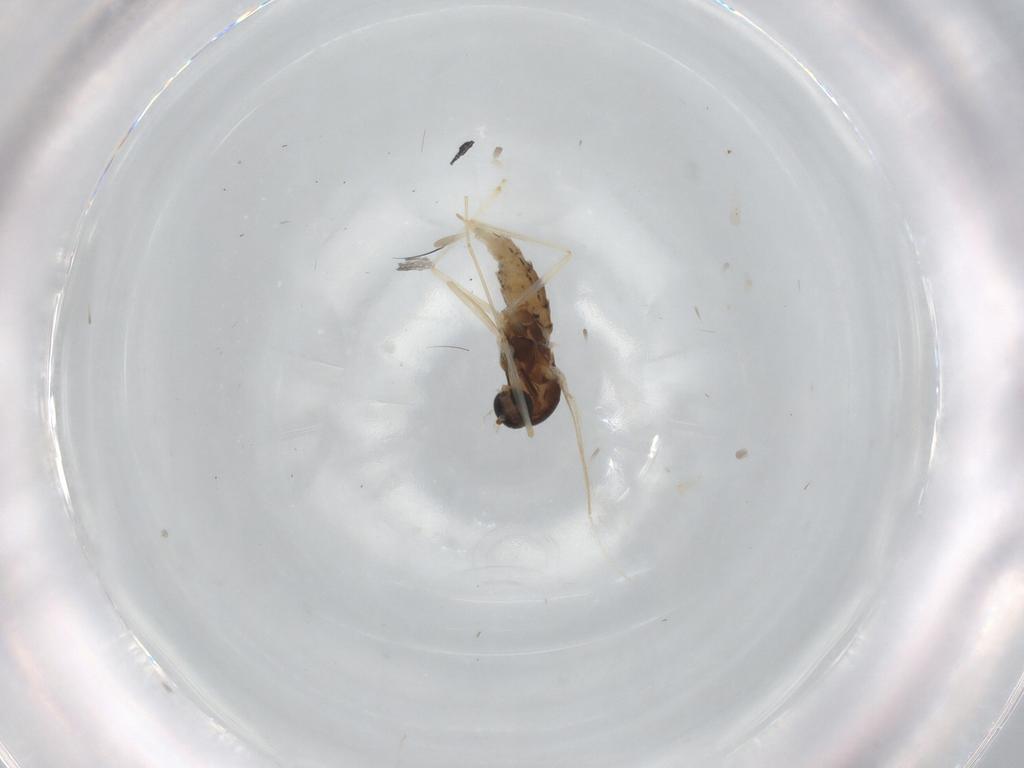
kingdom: Animalia
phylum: Arthropoda
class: Insecta
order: Diptera
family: Cecidomyiidae
